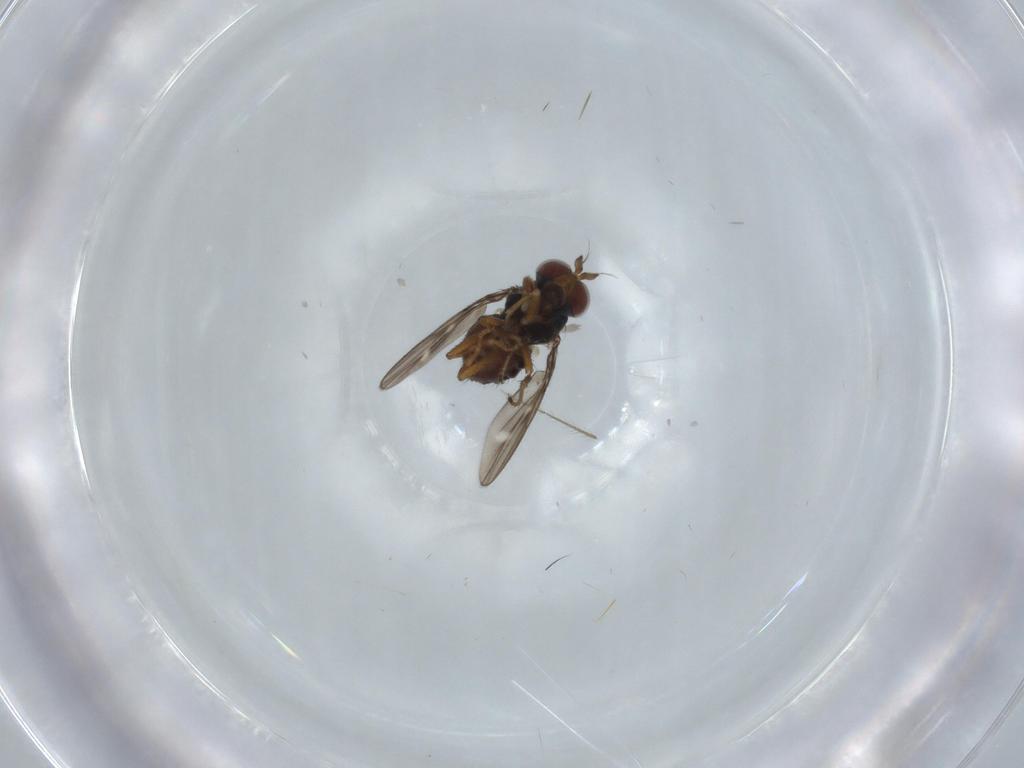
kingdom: Animalia
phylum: Arthropoda
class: Insecta
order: Diptera
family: Ephydridae
